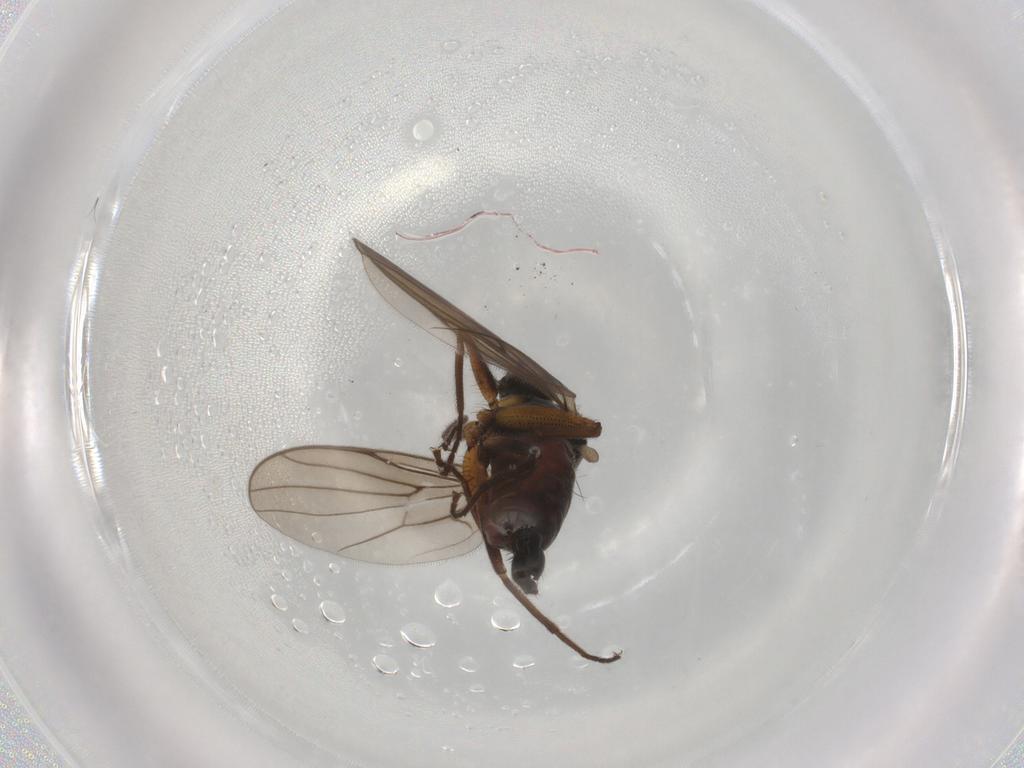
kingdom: Animalia
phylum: Arthropoda
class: Insecta
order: Diptera
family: Hybotidae
